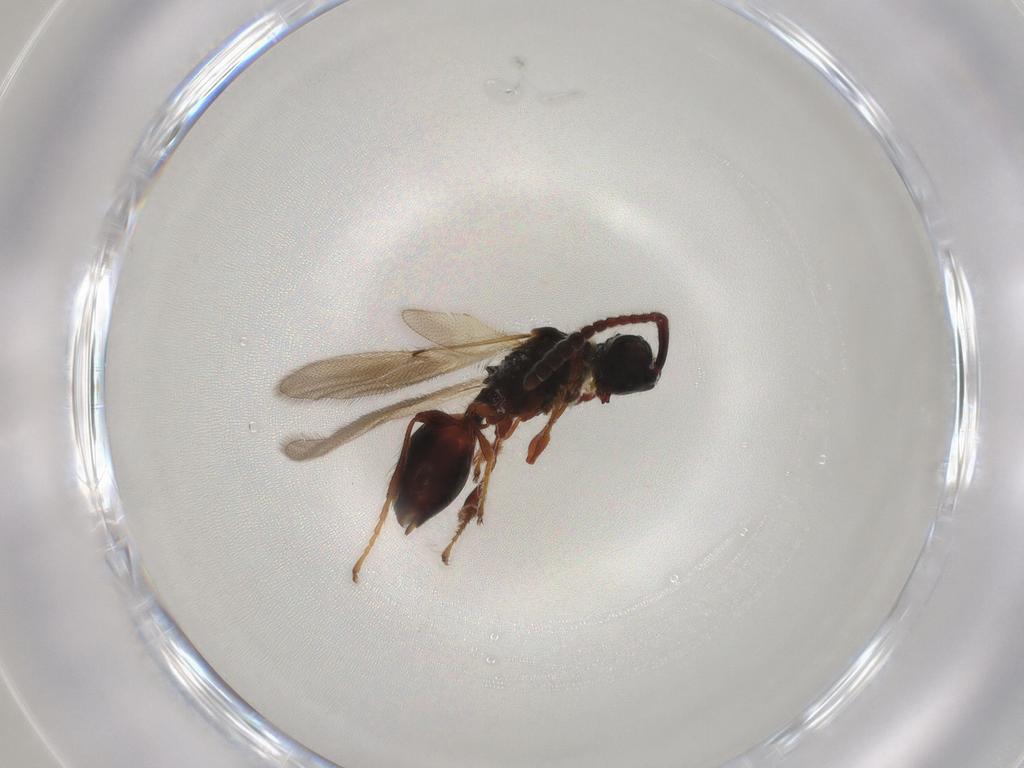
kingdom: Animalia
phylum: Arthropoda
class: Insecta
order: Hymenoptera
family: Diapriidae
